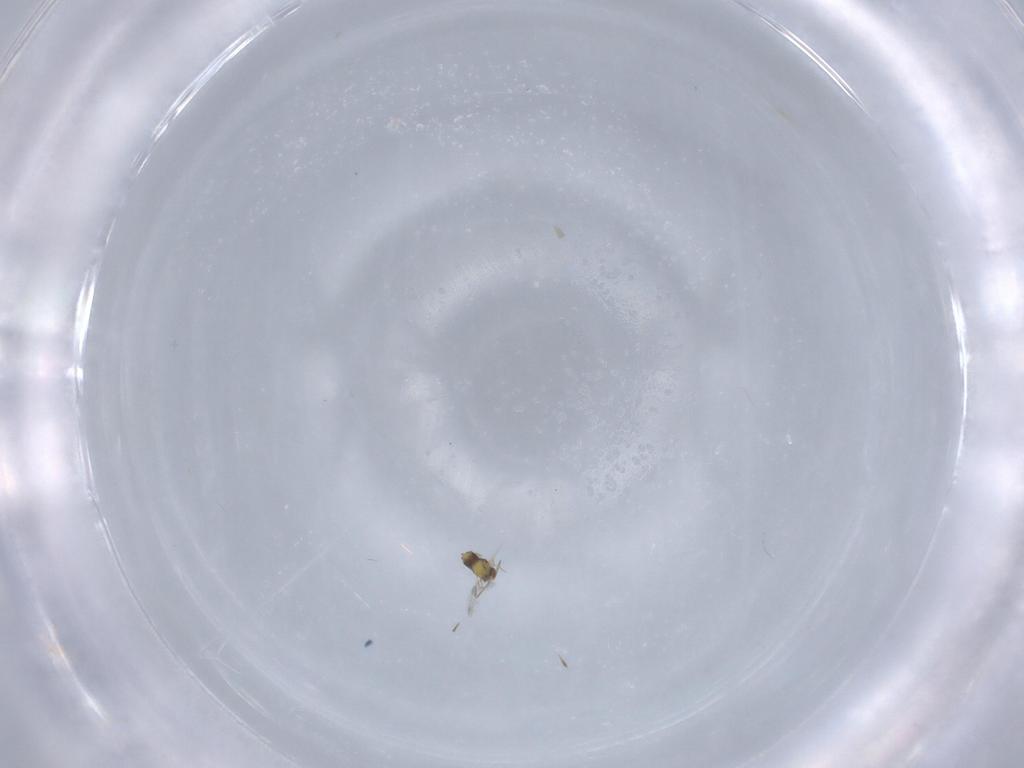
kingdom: Animalia
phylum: Arthropoda
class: Insecta
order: Hymenoptera
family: Aphelinidae
